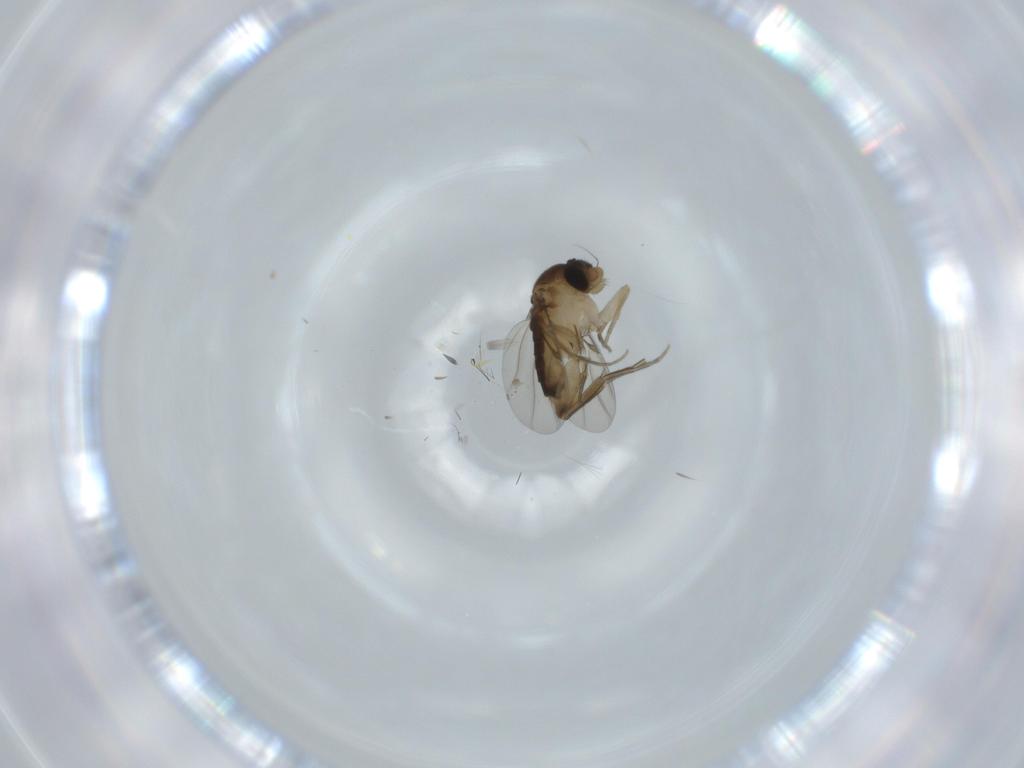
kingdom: Animalia
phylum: Arthropoda
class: Insecta
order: Diptera
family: Phoridae
